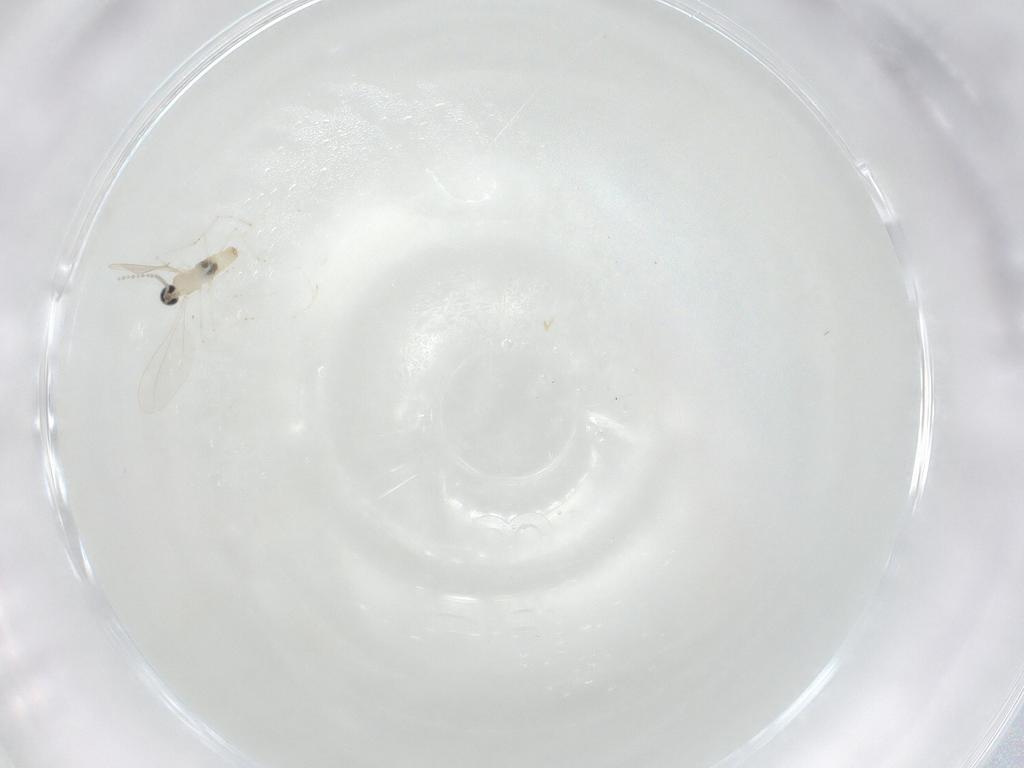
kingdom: Animalia
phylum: Arthropoda
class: Insecta
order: Diptera
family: Cecidomyiidae
